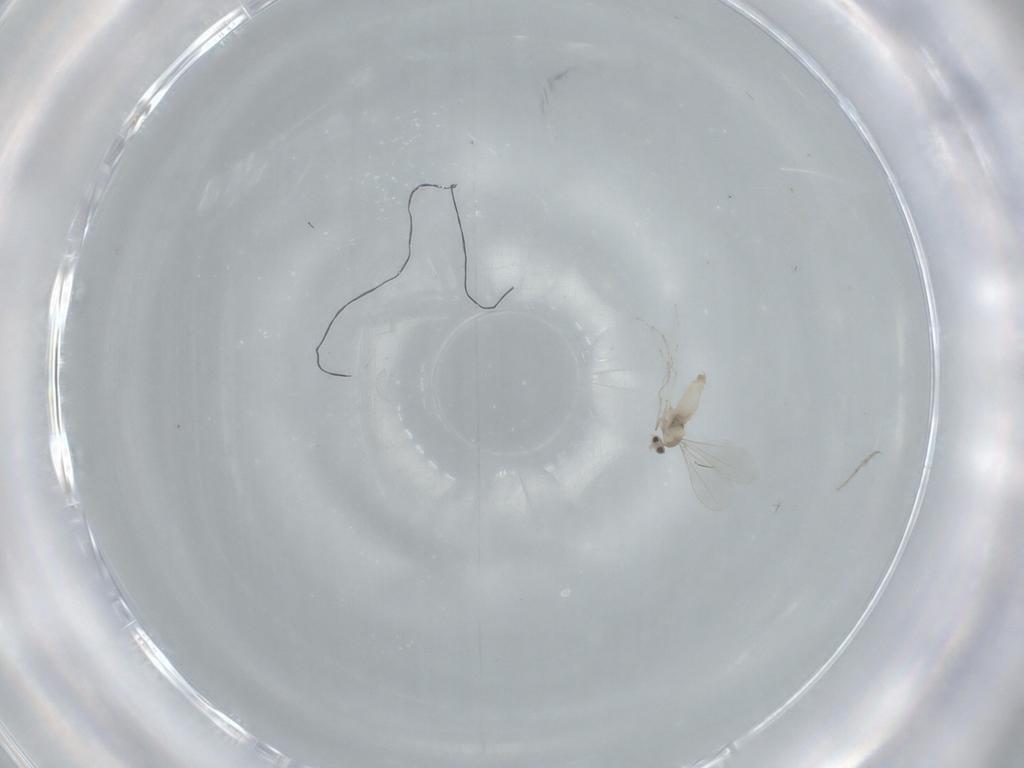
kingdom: Animalia
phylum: Arthropoda
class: Insecta
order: Diptera
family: Cecidomyiidae
